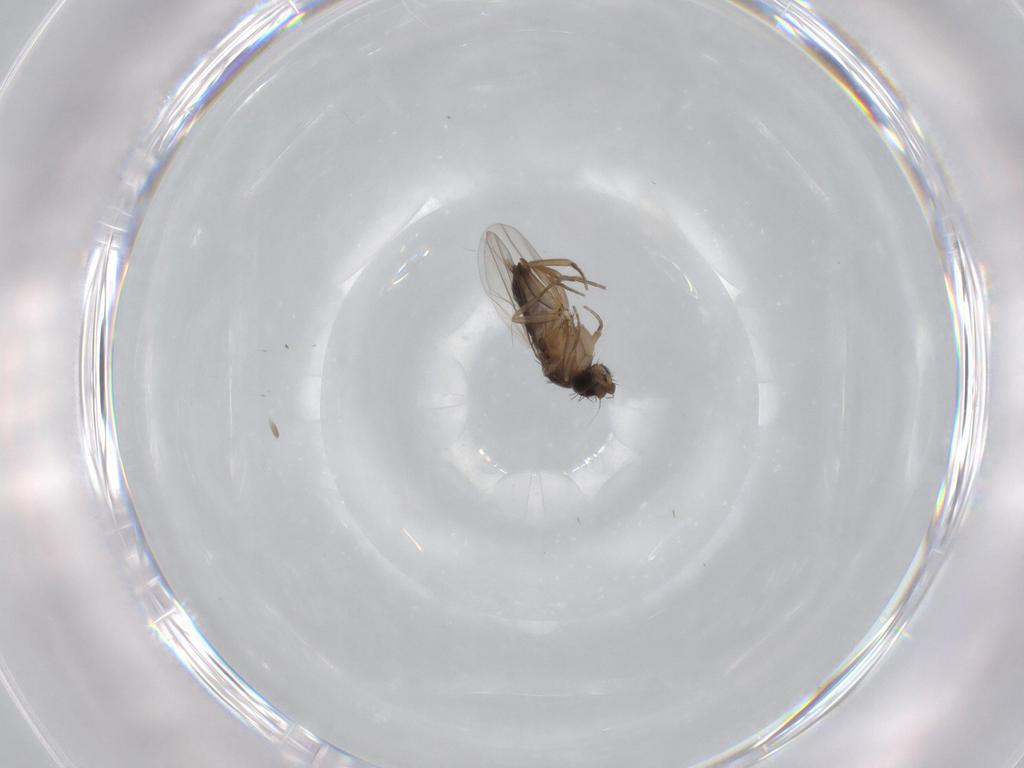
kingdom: Animalia
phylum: Arthropoda
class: Insecta
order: Diptera
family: Phoridae
